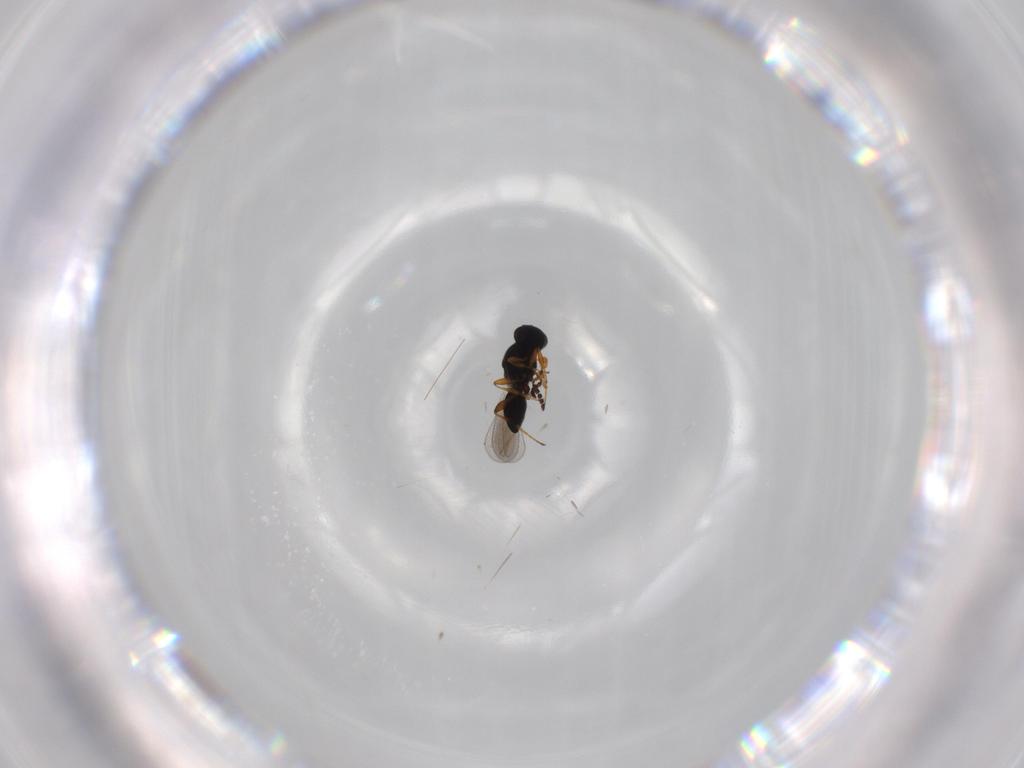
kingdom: Animalia
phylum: Arthropoda
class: Insecta
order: Hymenoptera
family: Platygastridae
